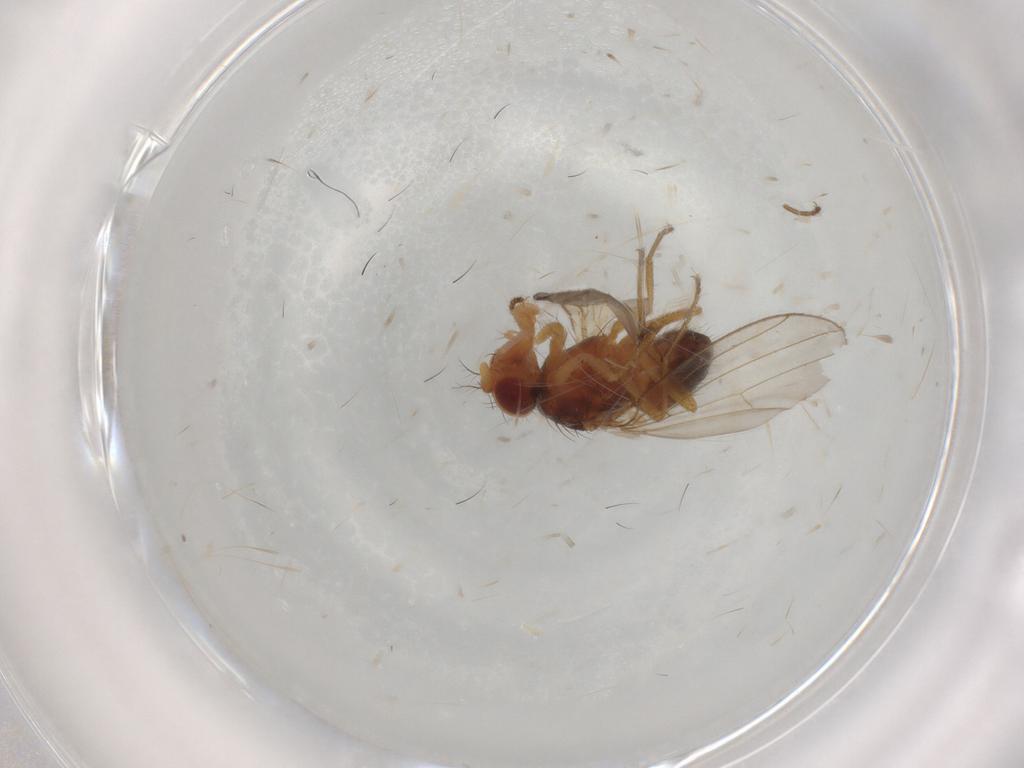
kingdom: Animalia
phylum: Arthropoda
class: Insecta
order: Diptera
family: Drosophilidae
